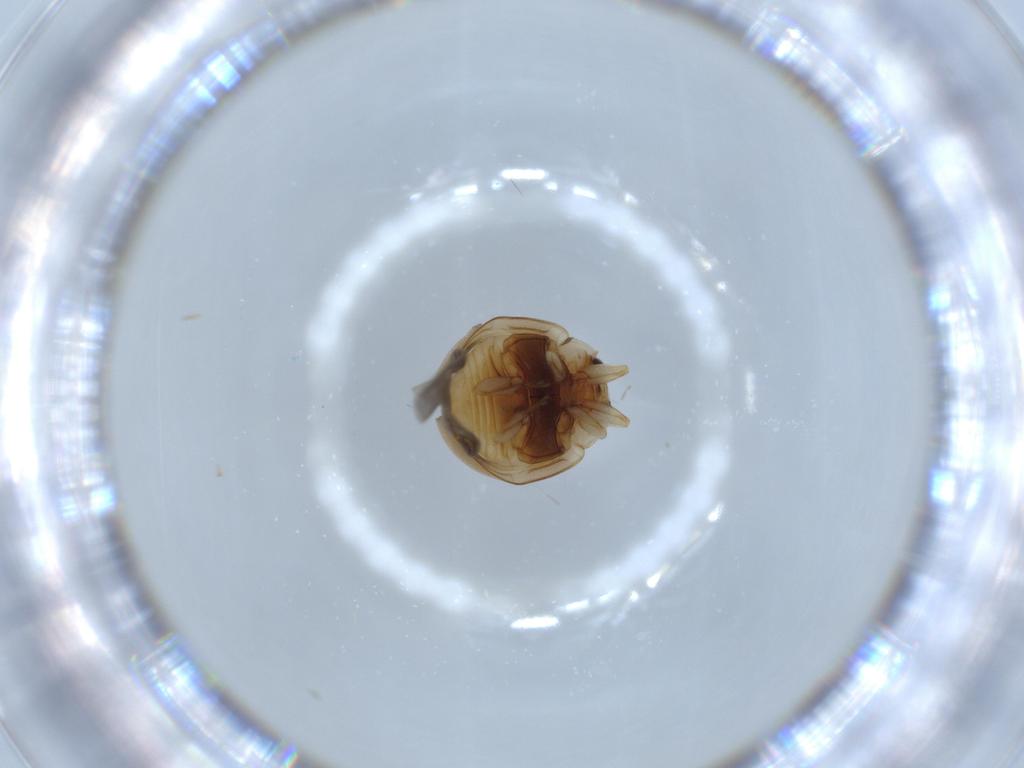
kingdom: Animalia
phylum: Arthropoda
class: Insecta
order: Coleoptera
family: Coccinellidae
